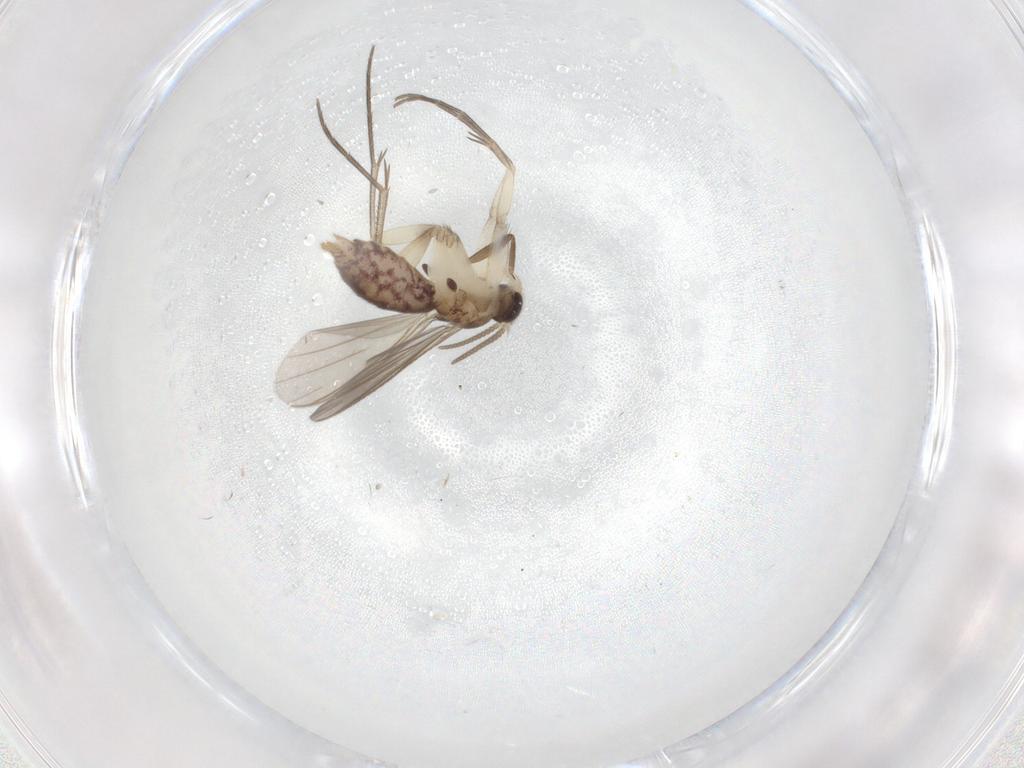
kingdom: Animalia
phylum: Arthropoda
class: Insecta
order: Diptera
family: Mycetophilidae
